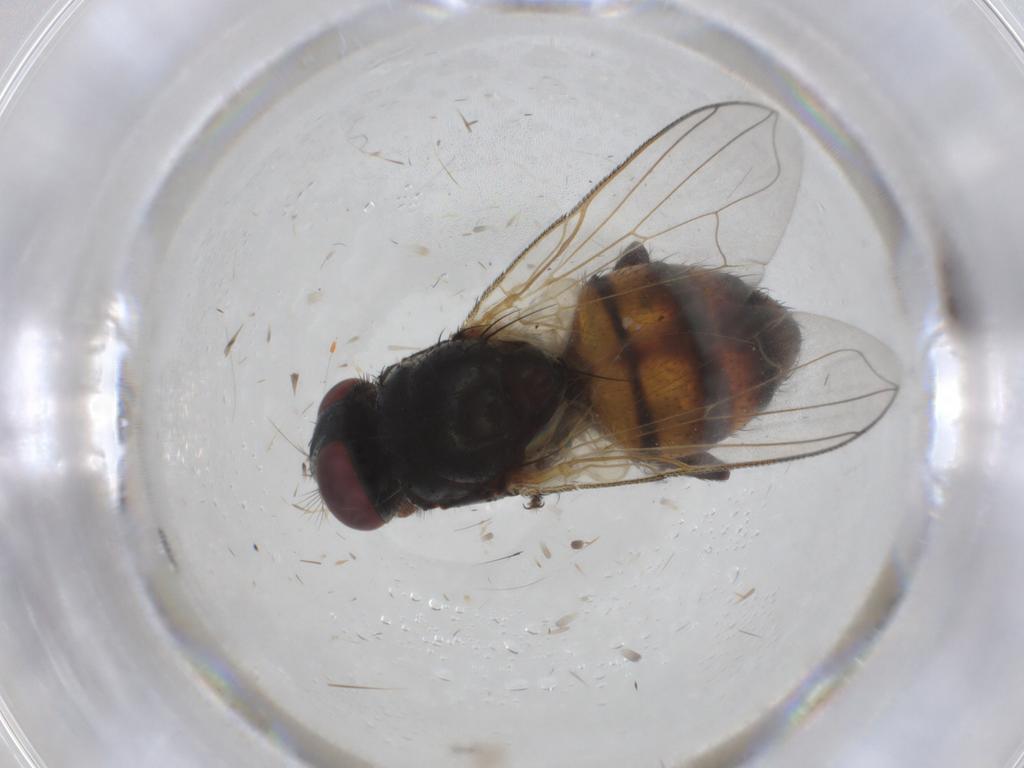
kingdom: Animalia
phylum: Arthropoda
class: Insecta
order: Diptera
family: Muscidae
